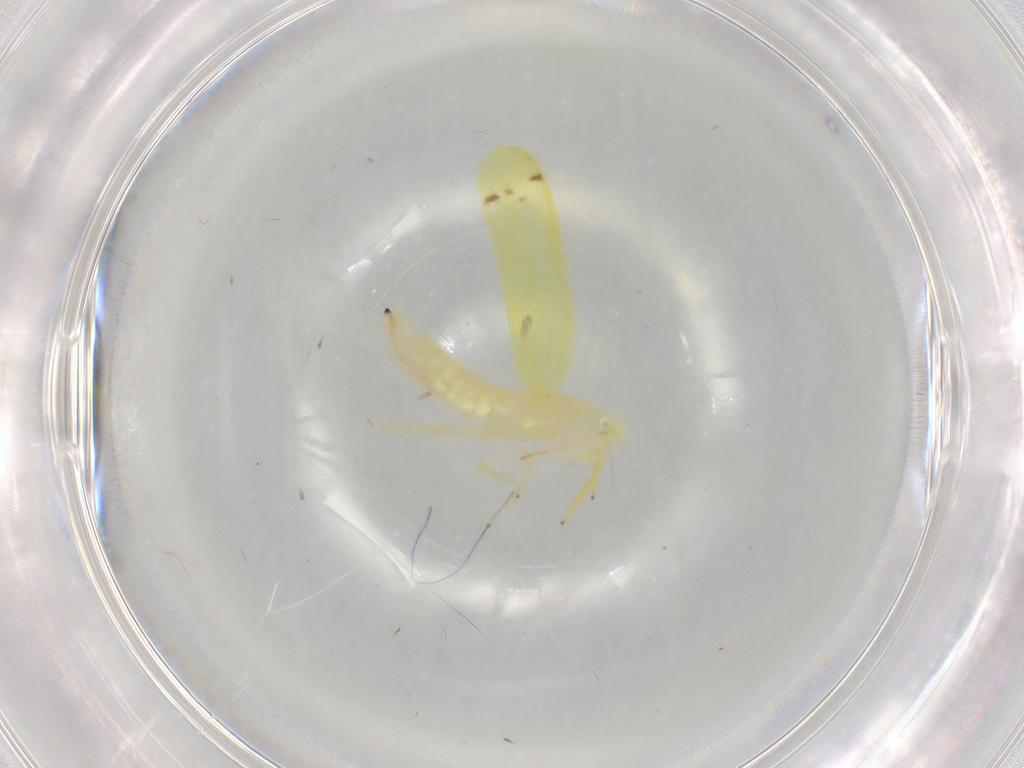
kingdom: Animalia
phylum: Arthropoda
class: Insecta
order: Hemiptera
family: Cicadellidae
